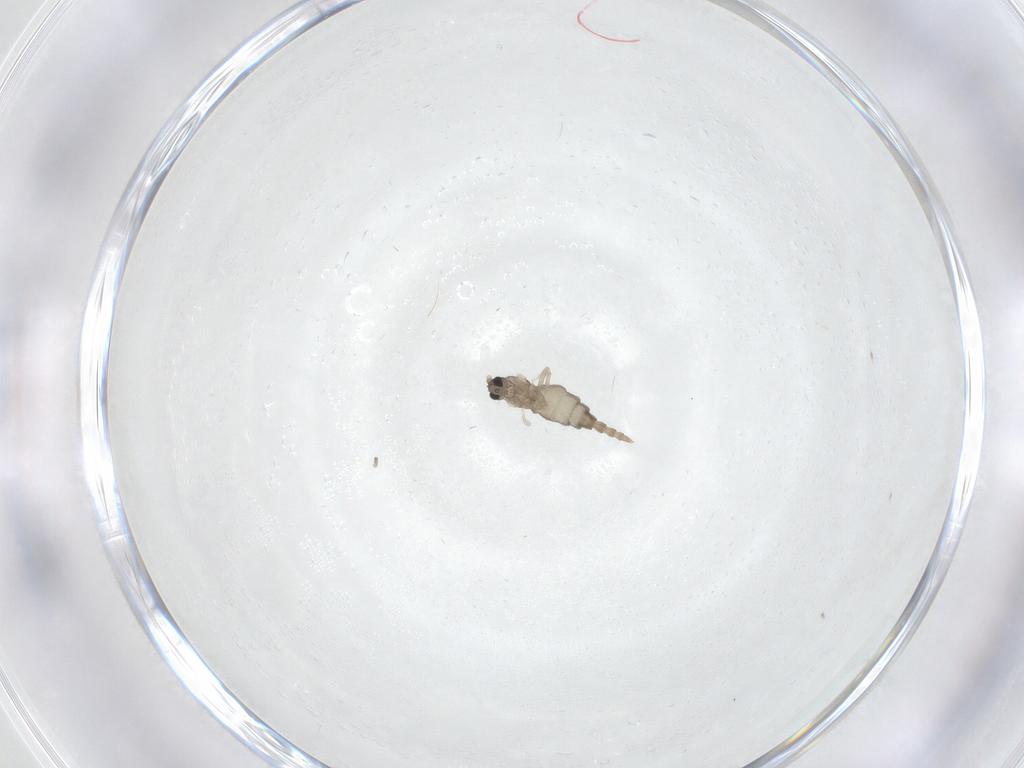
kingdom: Animalia
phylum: Arthropoda
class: Insecta
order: Diptera
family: Cecidomyiidae
